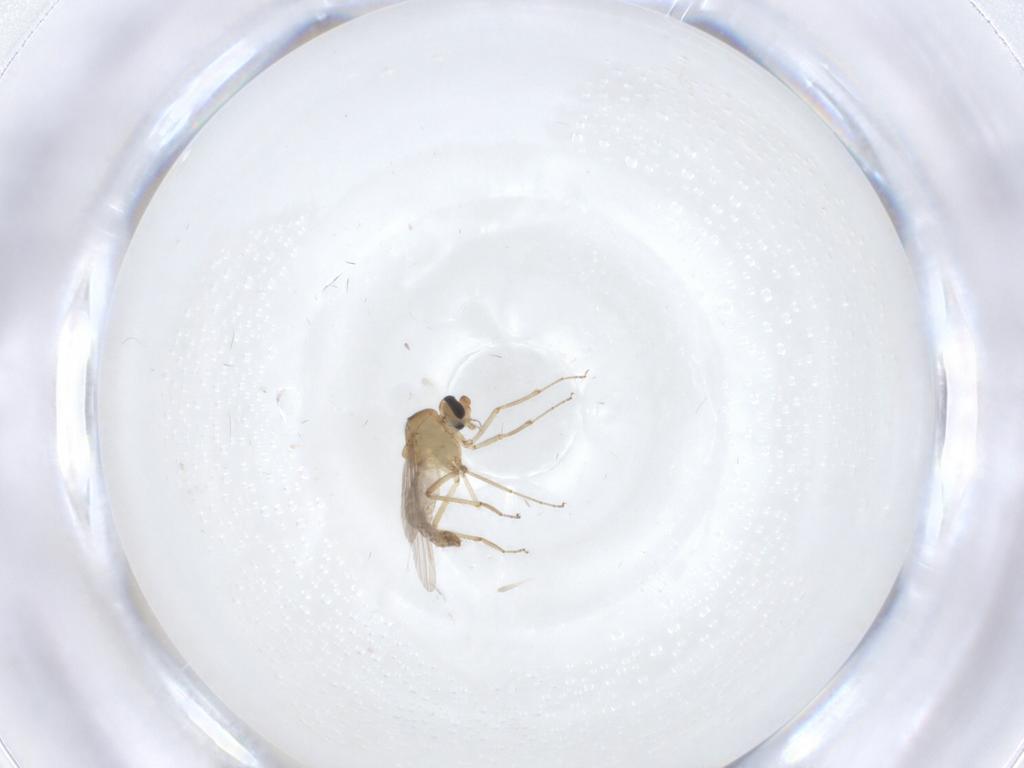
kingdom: Animalia
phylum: Arthropoda
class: Insecta
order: Diptera
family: Ceratopogonidae
